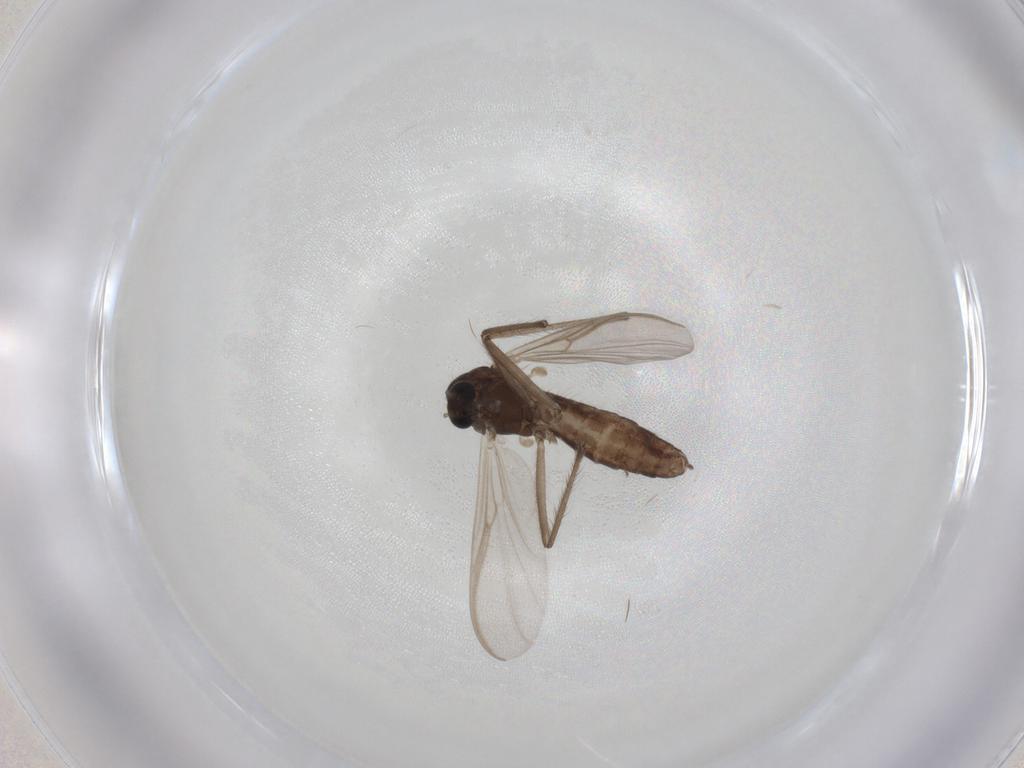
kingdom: Animalia
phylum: Arthropoda
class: Insecta
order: Diptera
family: Chironomidae
